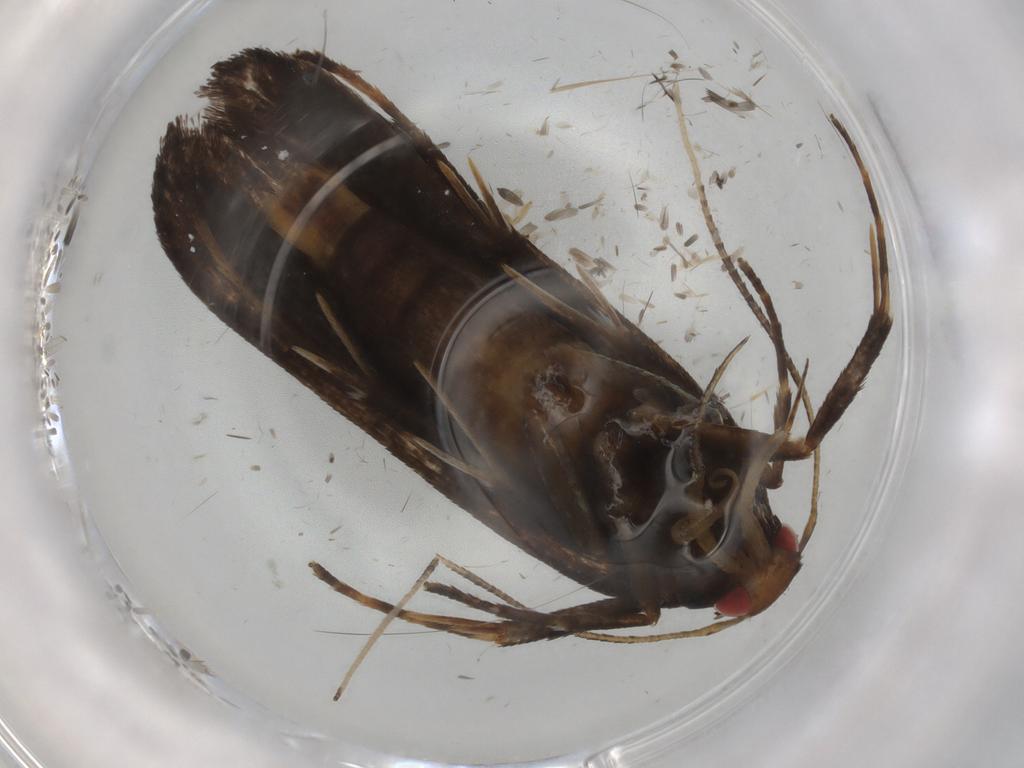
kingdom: Animalia
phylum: Arthropoda
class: Insecta
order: Lepidoptera
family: Gelechiidae
